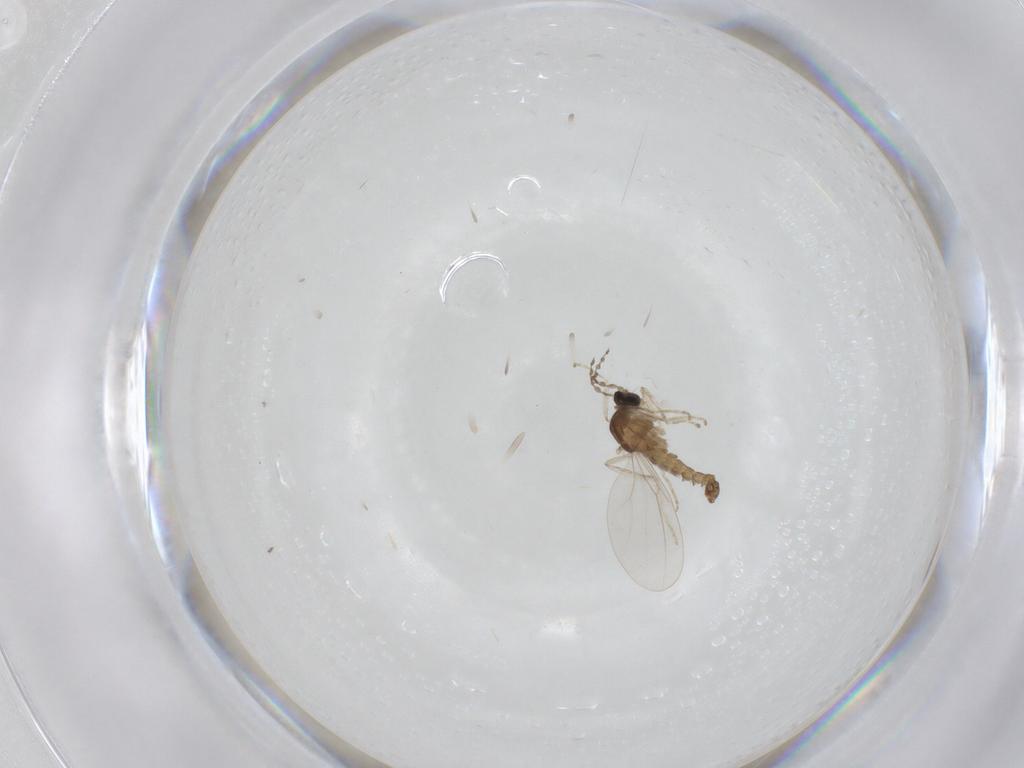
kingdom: Animalia
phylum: Arthropoda
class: Insecta
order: Diptera
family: Cecidomyiidae
